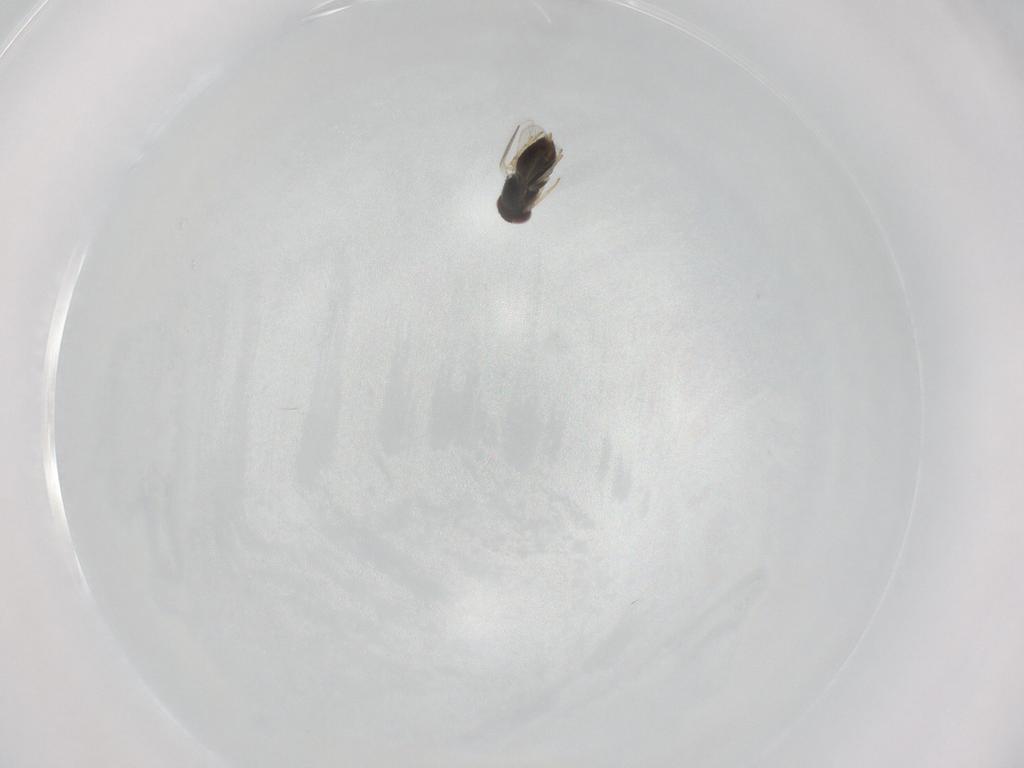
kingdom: Animalia
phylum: Arthropoda
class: Insecta
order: Hymenoptera
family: Aphelinidae
